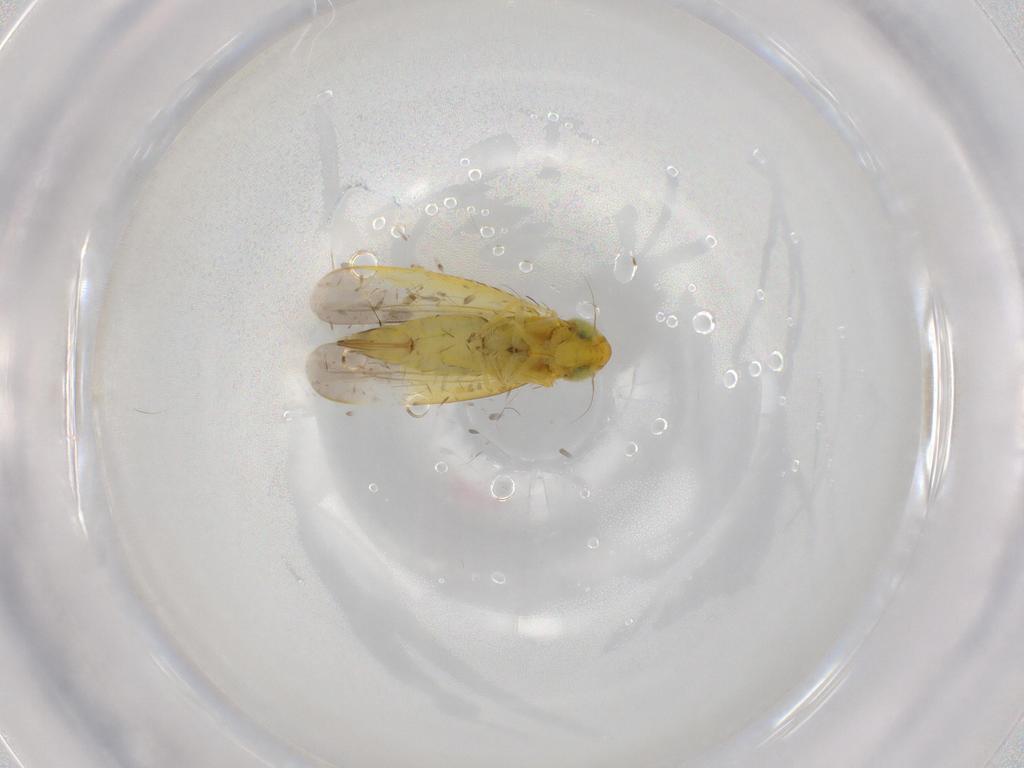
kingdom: Animalia
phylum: Arthropoda
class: Insecta
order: Hemiptera
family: Cicadellidae
